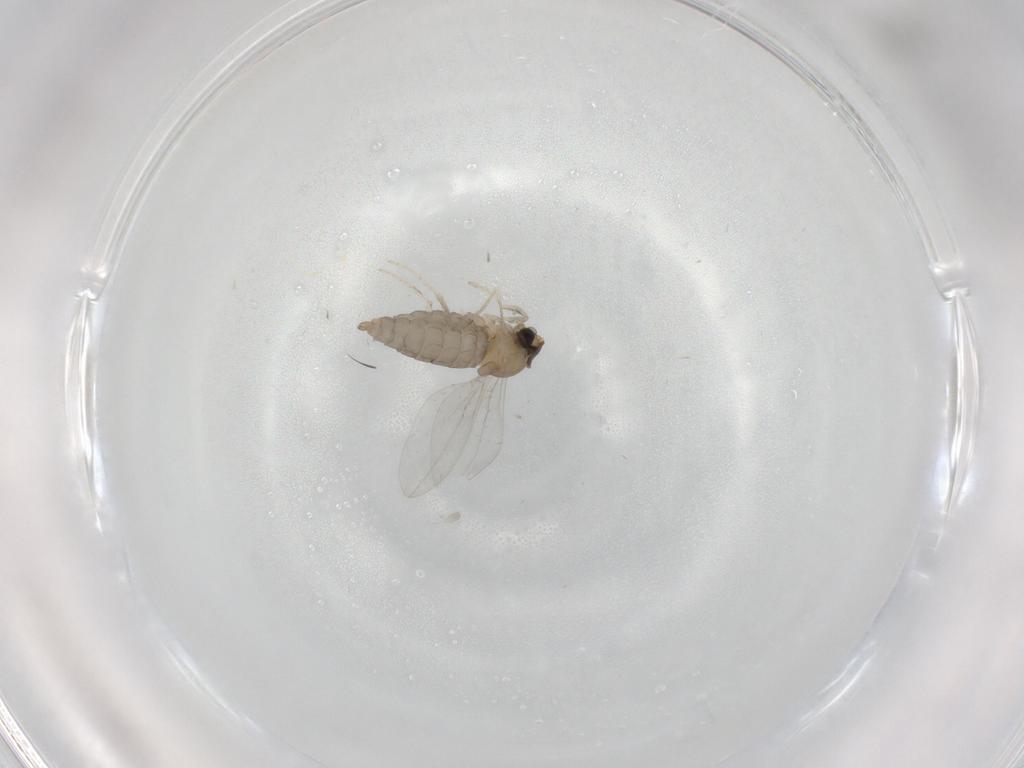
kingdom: Animalia
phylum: Arthropoda
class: Insecta
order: Diptera
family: Cecidomyiidae
